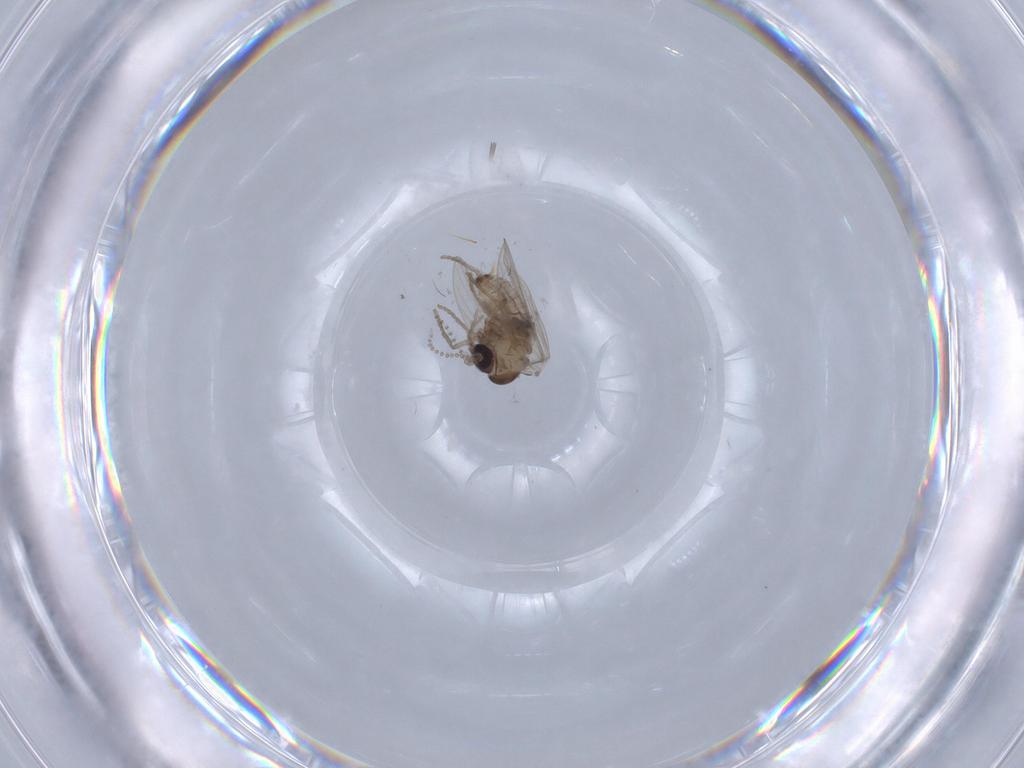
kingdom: Animalia
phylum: Arthropoda
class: Insecta
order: Diptera
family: Psychodidae
